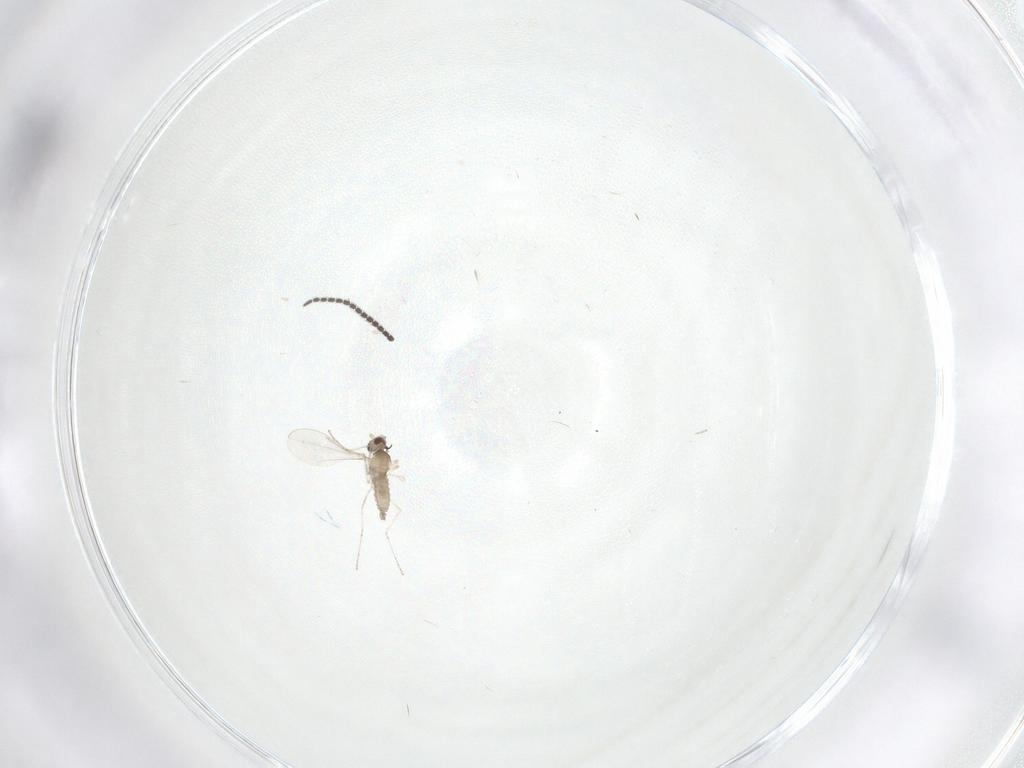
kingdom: Animalia
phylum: Arthropoda
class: Insecta
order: Diptera
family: Cecidomyiidae
